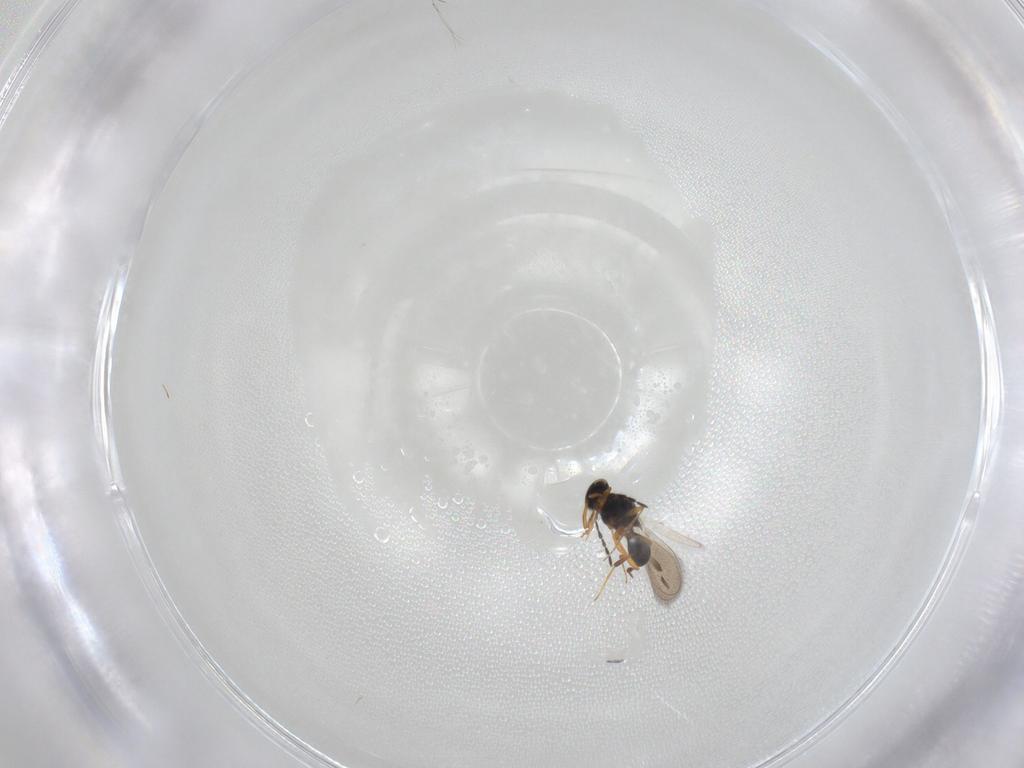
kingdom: Animalia
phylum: Arthropoda
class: Insecta
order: Hymenoptera
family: Platygastridae
